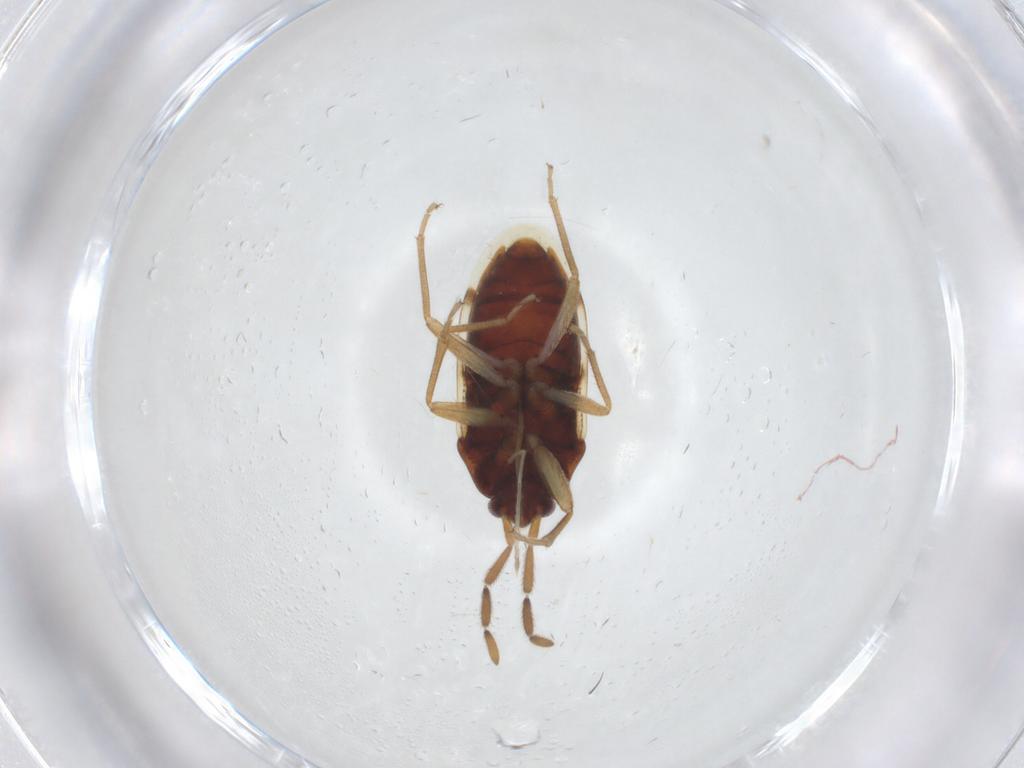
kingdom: Animalia
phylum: Arthropoda
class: Insecta
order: Hemiptera
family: Rhyparochromidae
